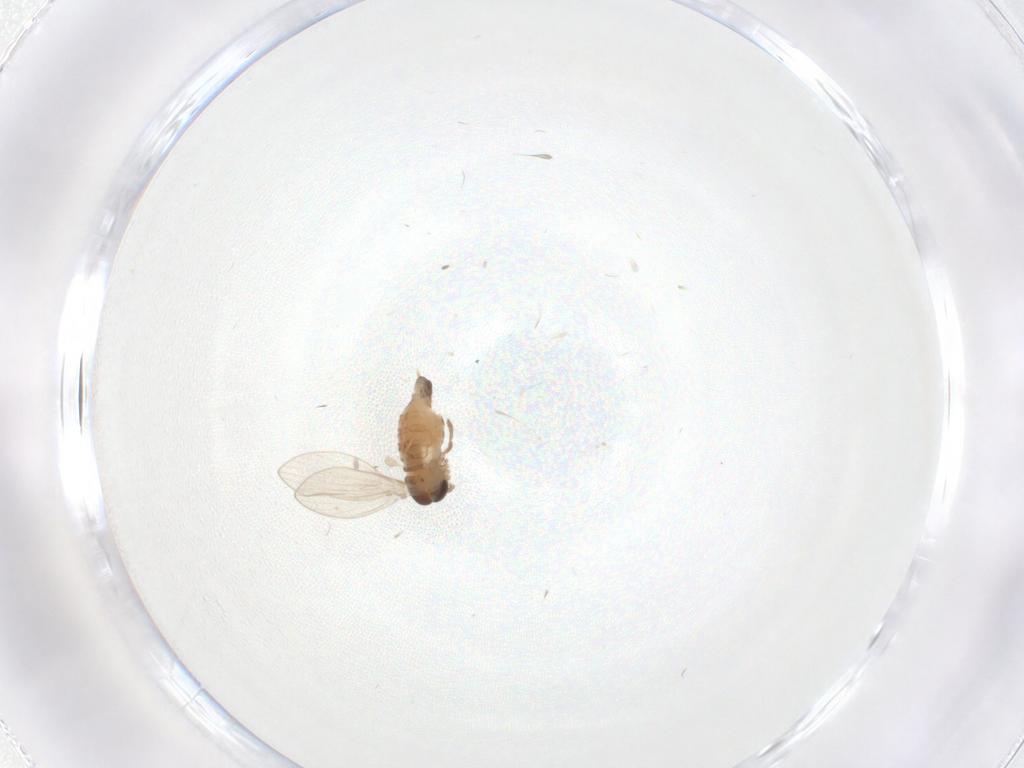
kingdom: Animalia
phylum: Arthropoda
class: Insecta
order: Diptera
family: Psychodidae
